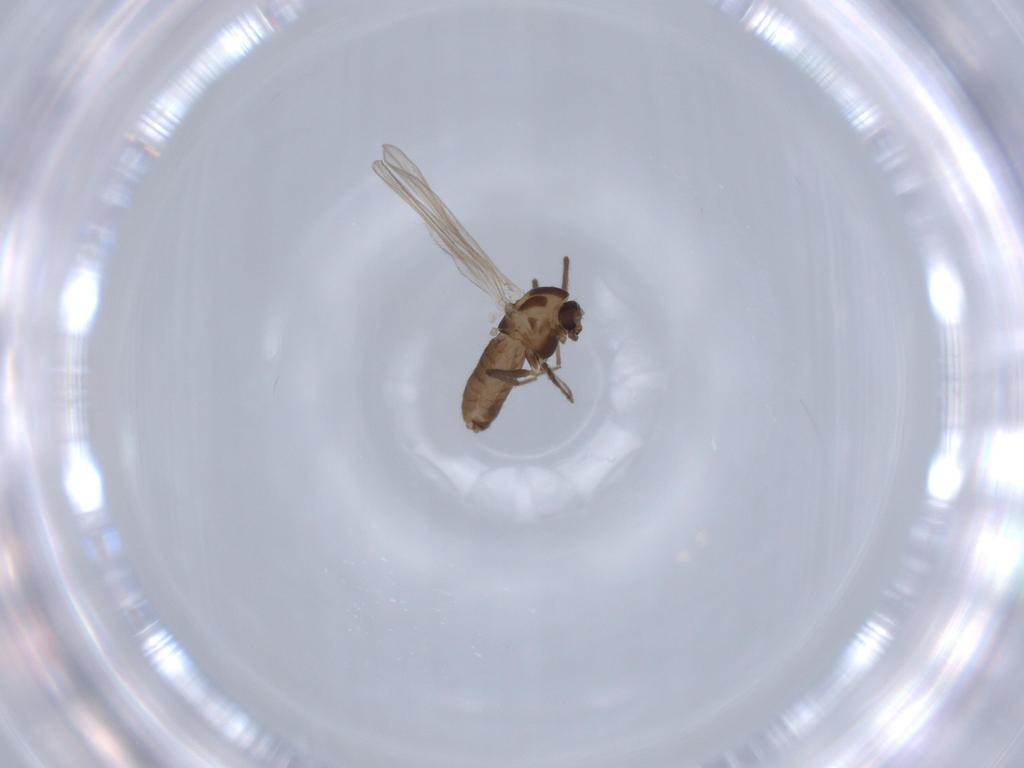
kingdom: Animalia
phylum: Arthropoda
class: Insecta
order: Diptera
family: Chironomidae
